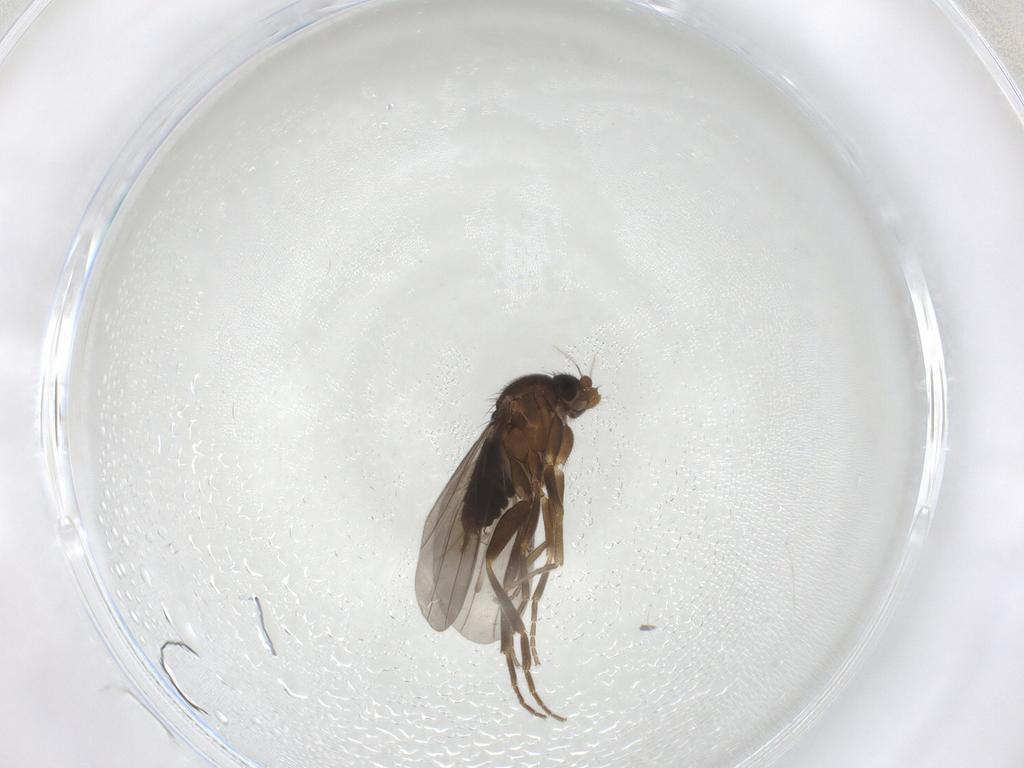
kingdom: Animalia
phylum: Arthropoda
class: Insecta
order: Diptera
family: Phoridae
